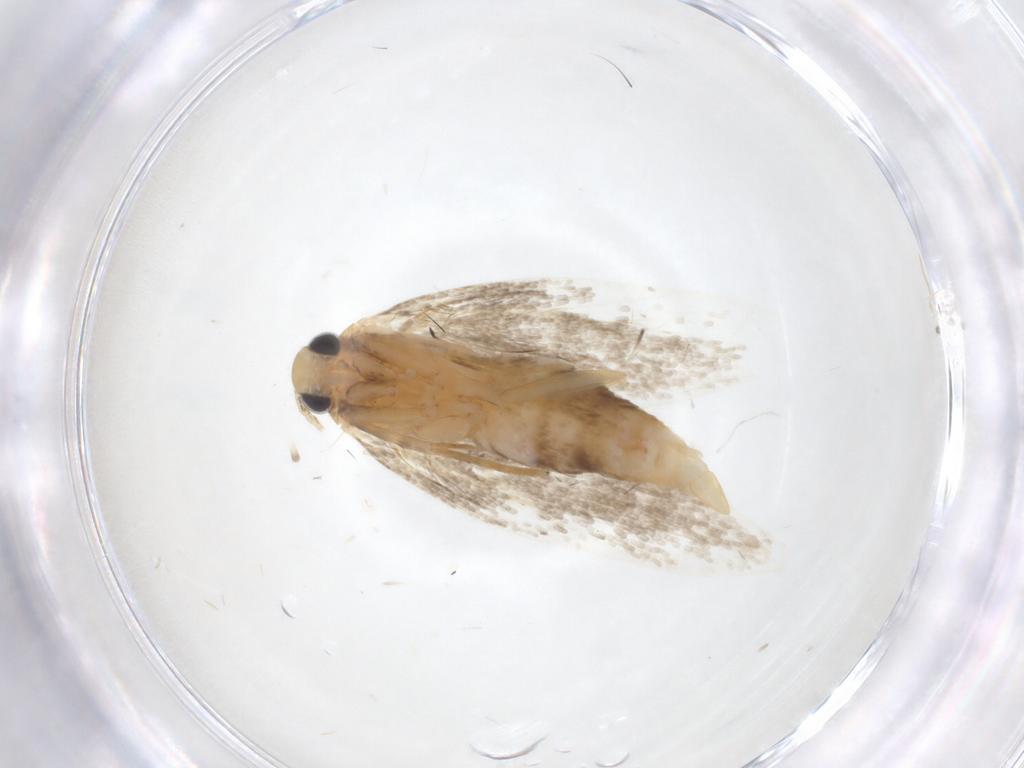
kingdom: Animalia
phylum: Arthropoda
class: Insecta
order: Lepidoptera
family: Autostichidae
